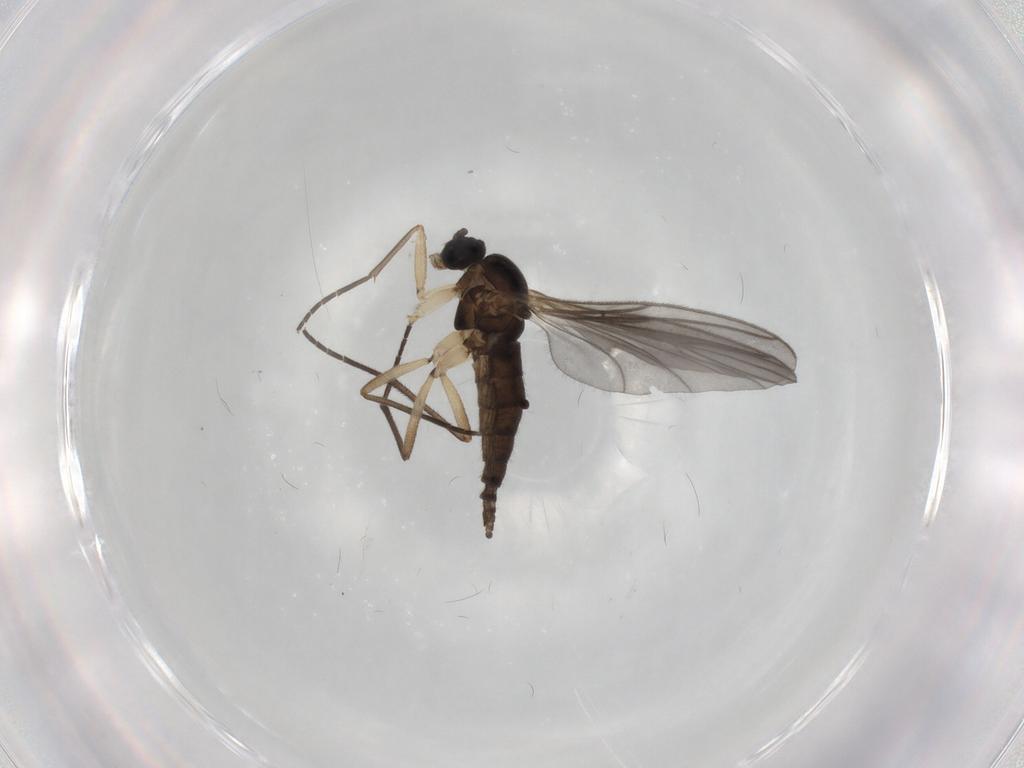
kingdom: Animalia
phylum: Arthropoda
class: Insecta
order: Diptera
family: Sciaridae
